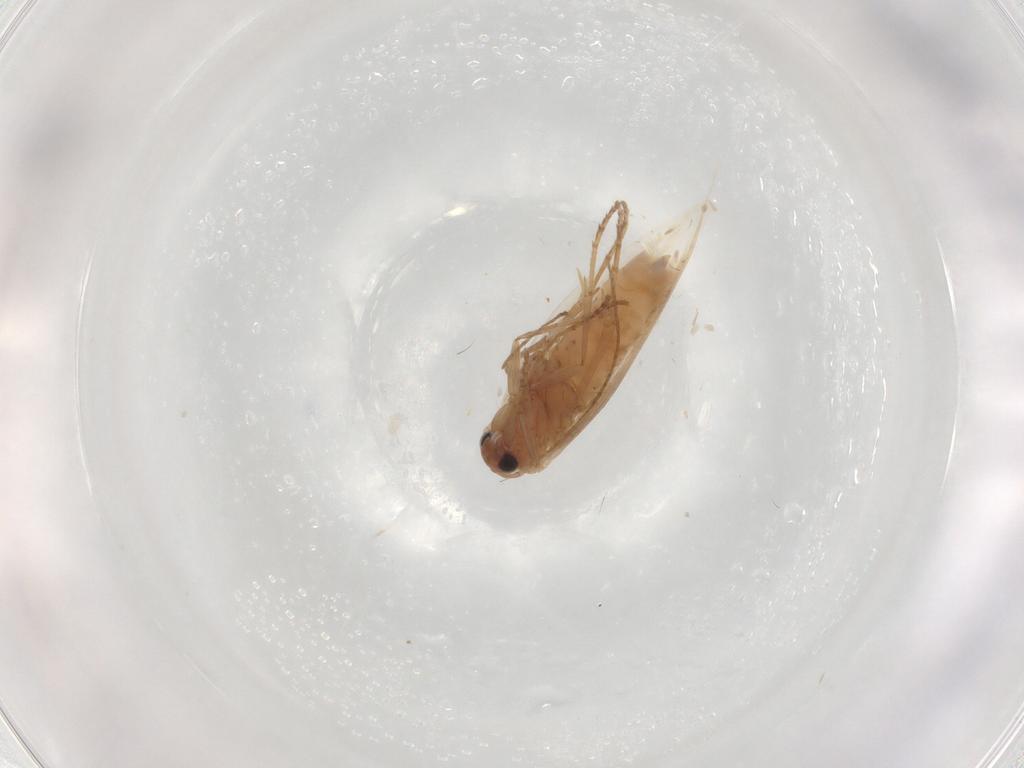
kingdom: Animalia
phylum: Arthropoda
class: Insecta
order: Lepidoptera
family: Bucculatricidae
